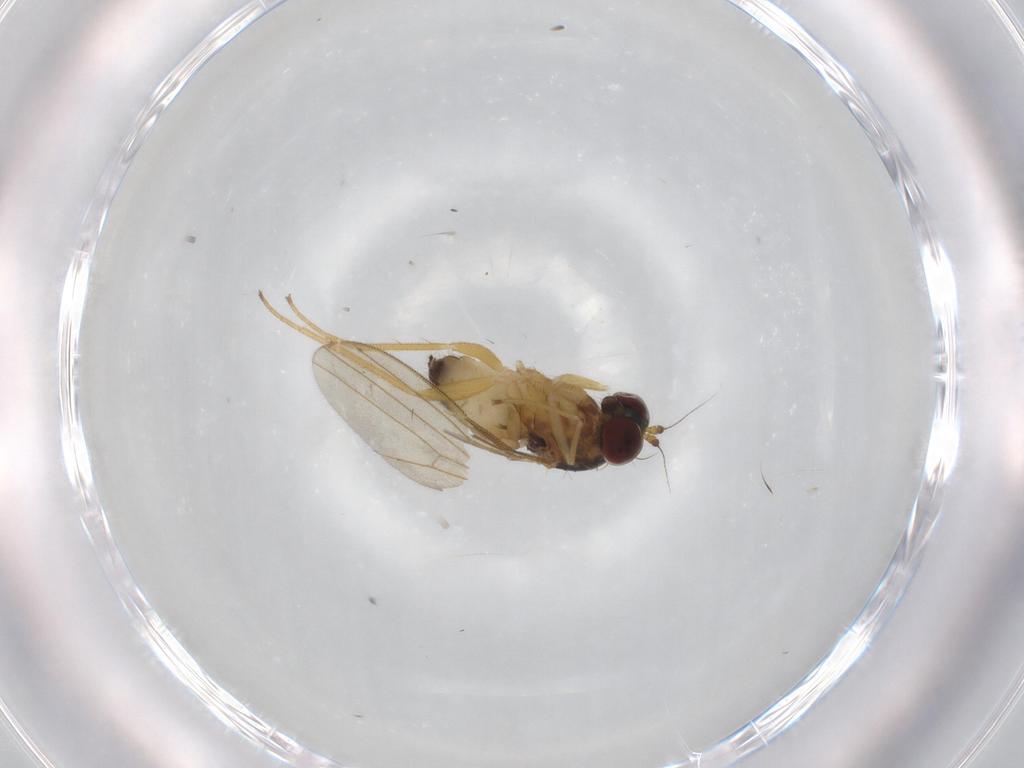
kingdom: Animalia
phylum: Arthropoda
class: Insecta
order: Diptera
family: Dolichopodidae
